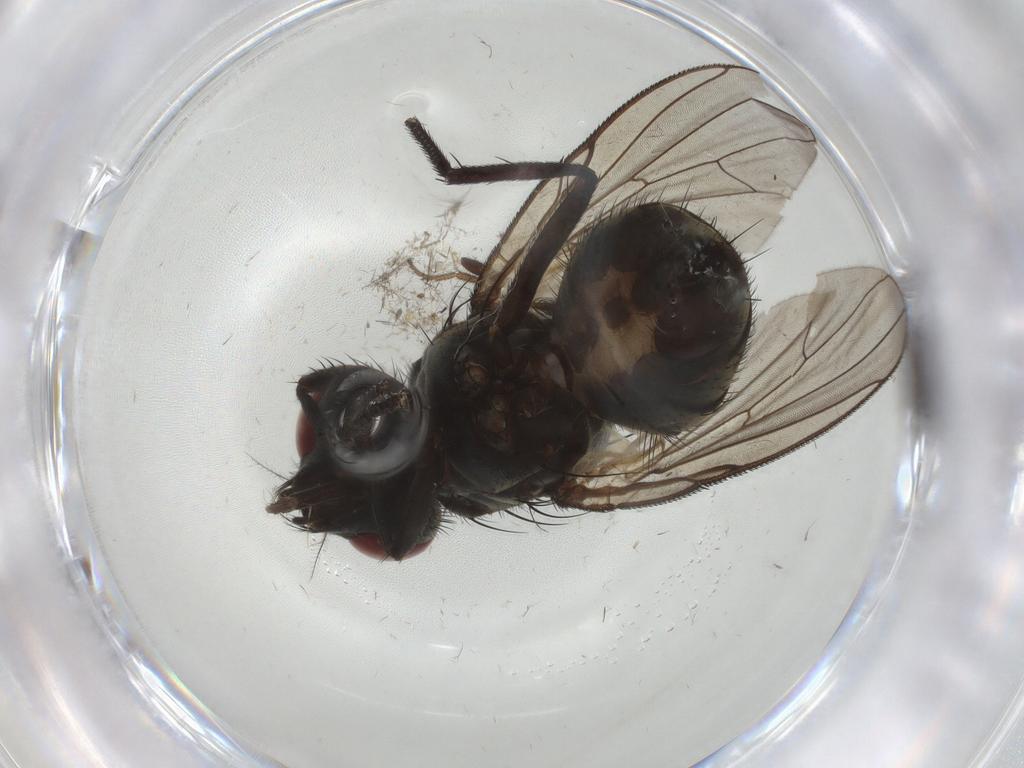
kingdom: Animalia
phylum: Arthropoda
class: Insecta
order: Diptera
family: Muscidae
